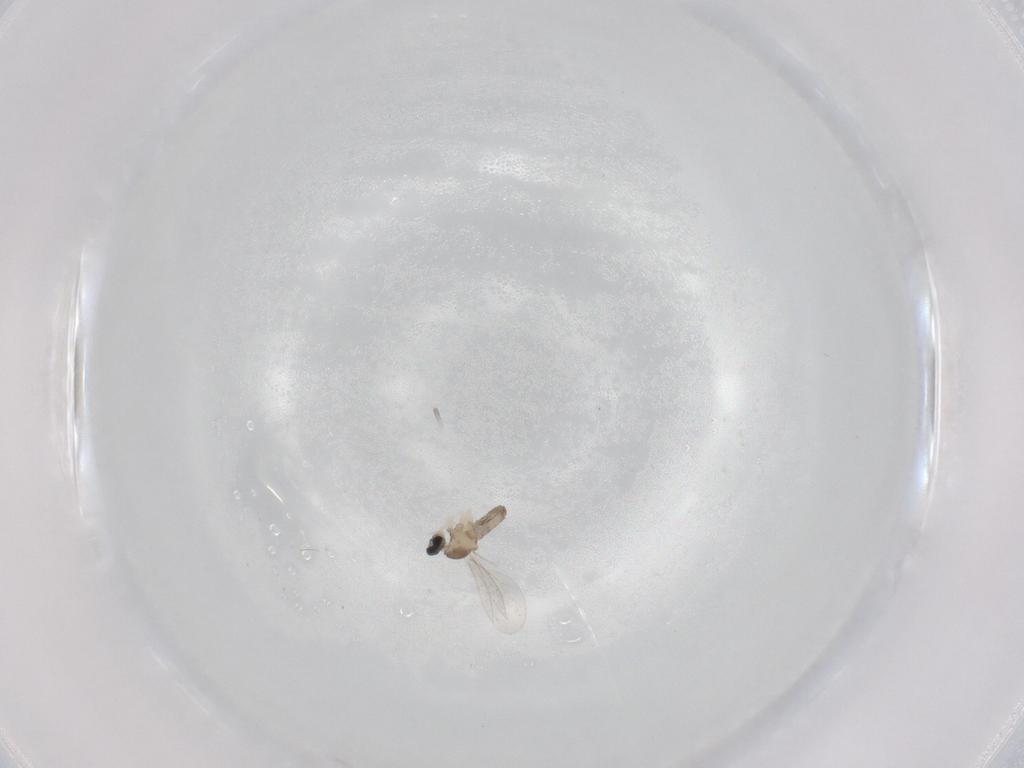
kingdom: Animalia
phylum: Arthropoda
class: Insecta
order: Diptera
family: Cecidomyiidae
